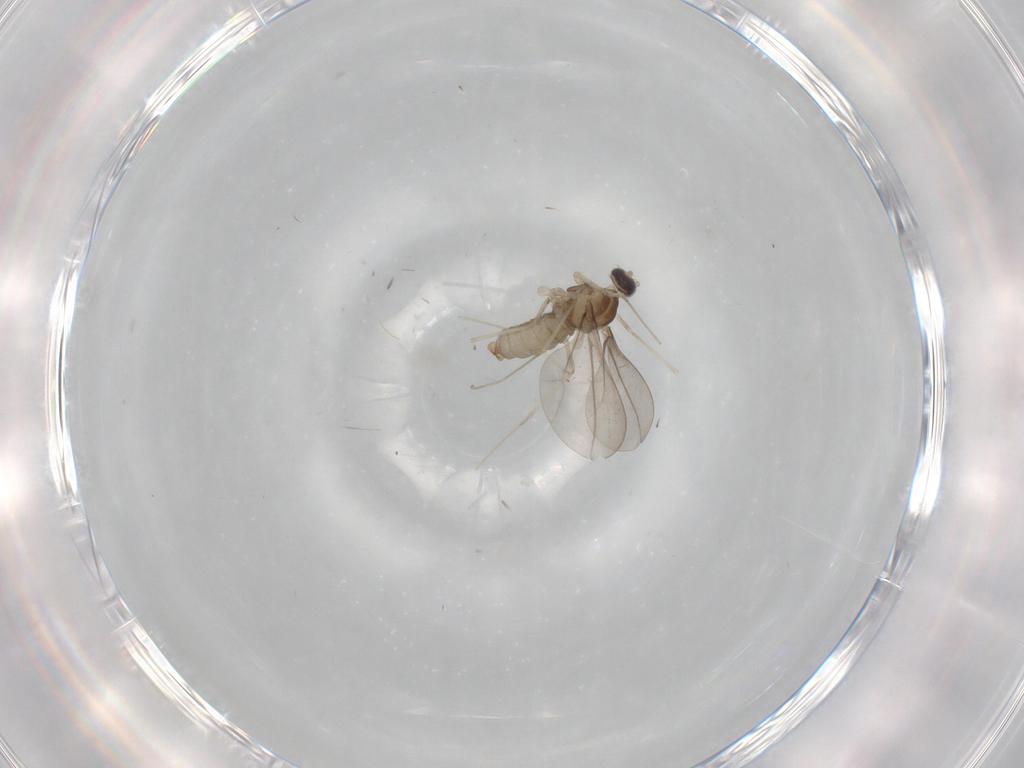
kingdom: Animalia
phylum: Arthropoda
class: Insecta
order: Diptera
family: Cecidomyiidae
